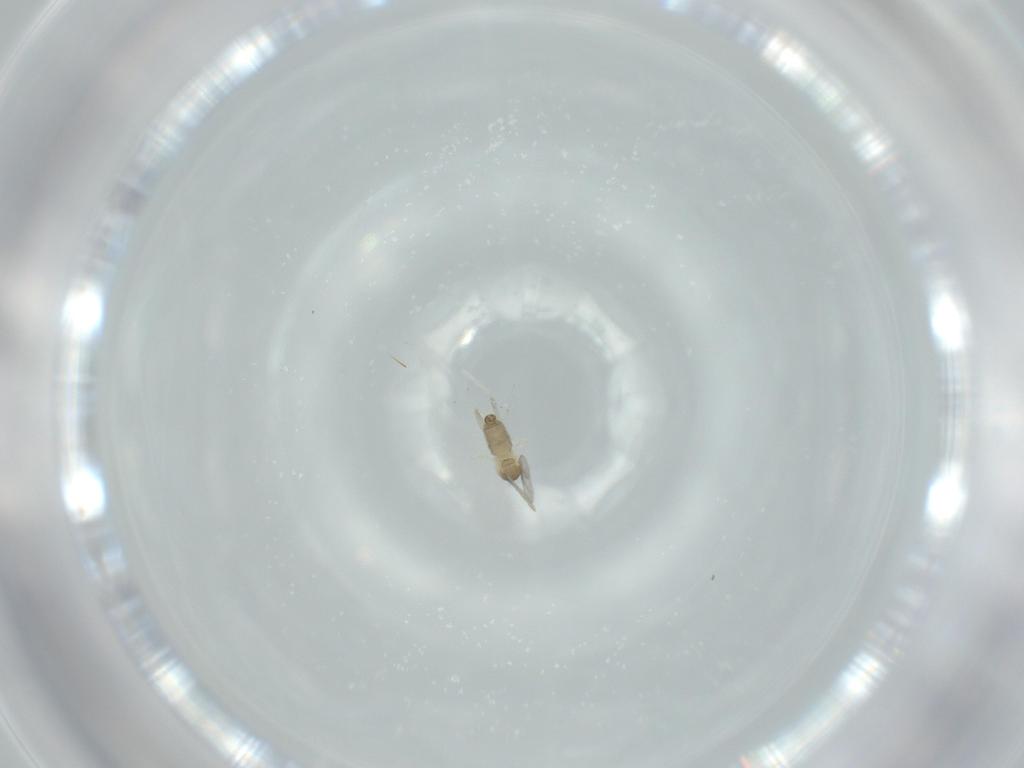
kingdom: Animalia
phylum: Arthropoda
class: Insecta
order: Diptera
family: Cecidomyiidae
